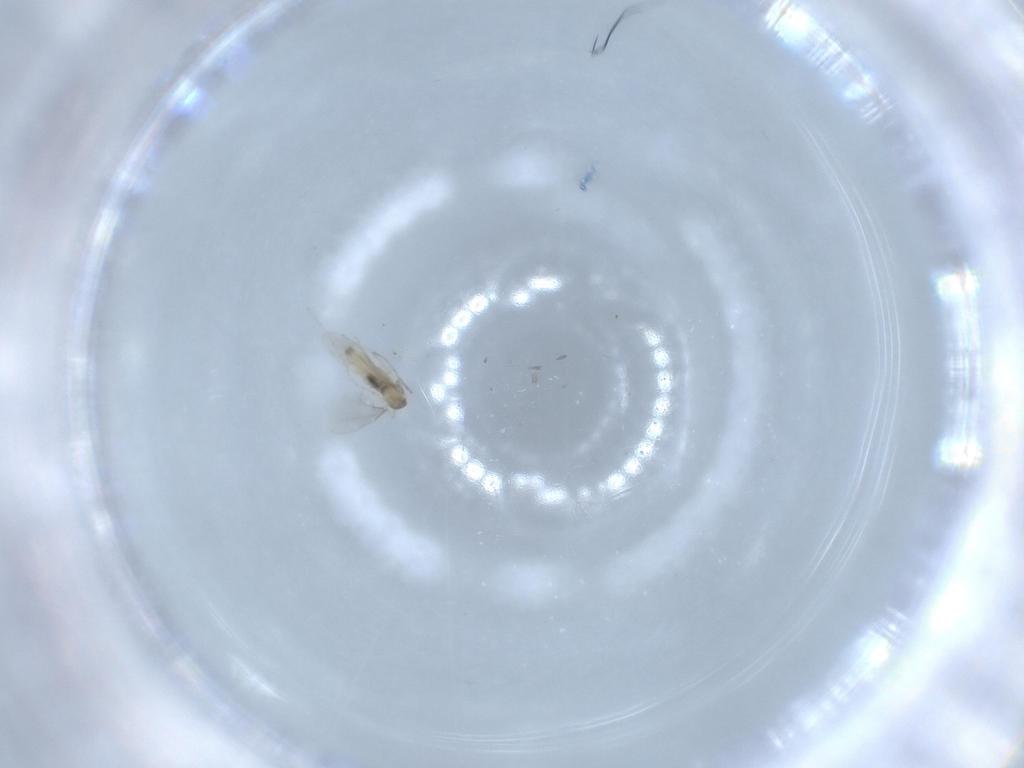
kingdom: Animalia
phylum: Arthropoda
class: Insecta
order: Diptera
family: Cecidomyiidae
